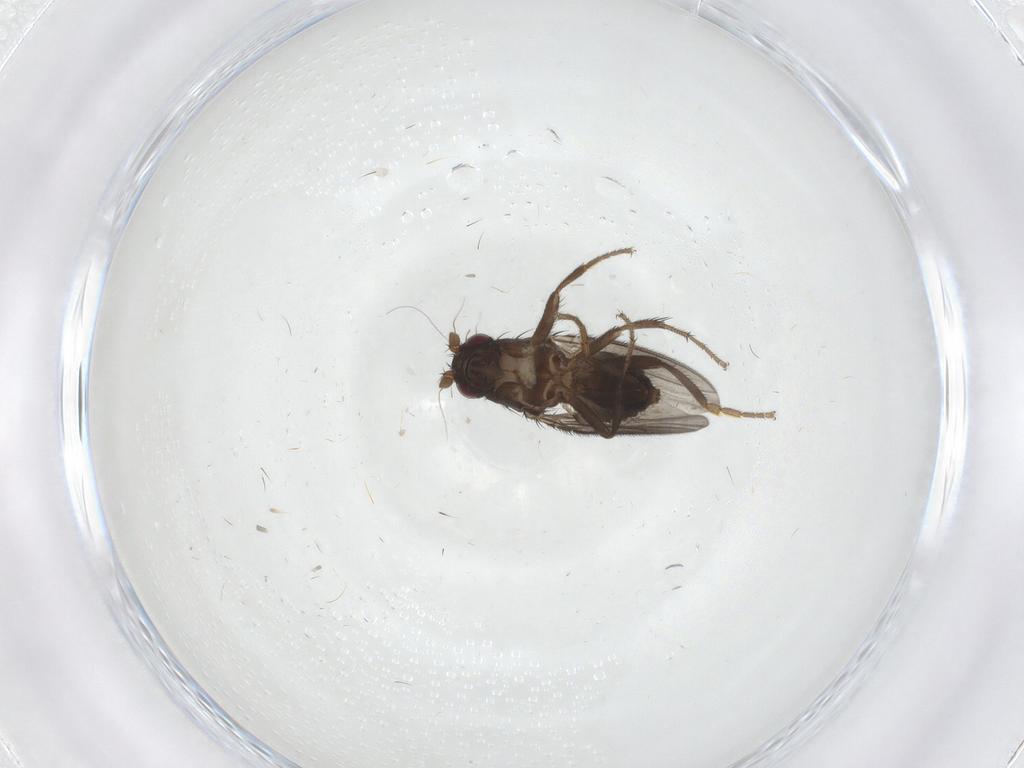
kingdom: Animalia
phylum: Arthropoda
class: Insecta
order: Diptera
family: Sphaeroceridae
